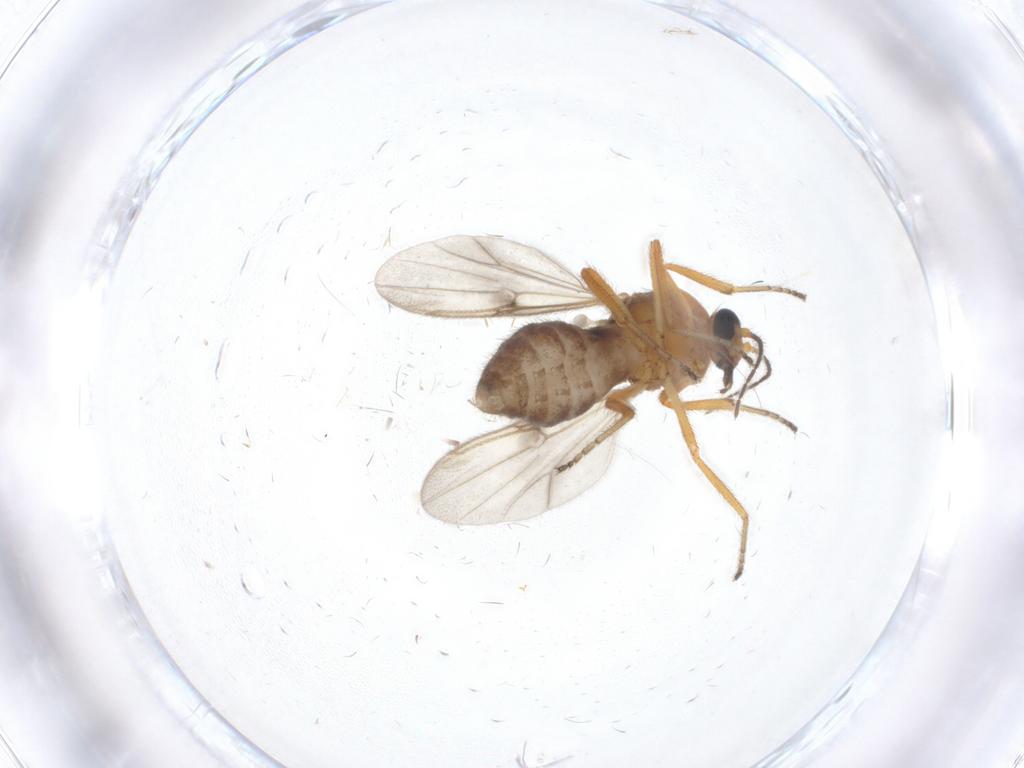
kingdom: Animalia
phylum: Arthropoda
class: Insecta
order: Diptera
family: Ceratopogonidae
